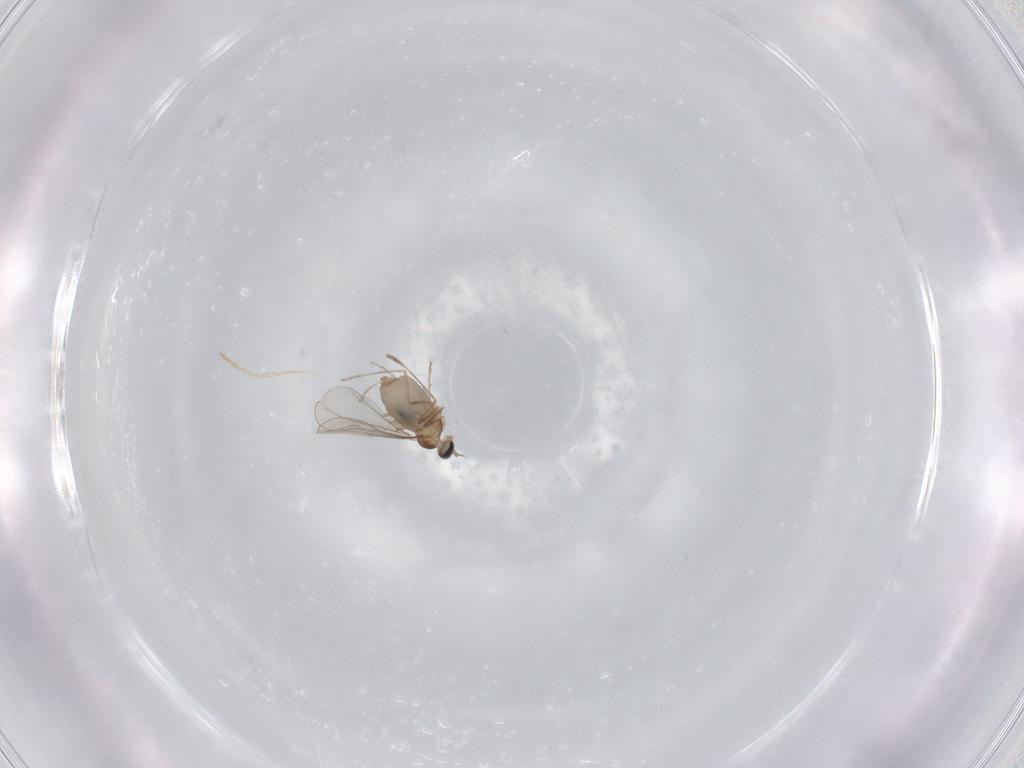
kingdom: Animalia
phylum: Arthropoda
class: Insecta
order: Diptera
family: Cecidomyiidae
